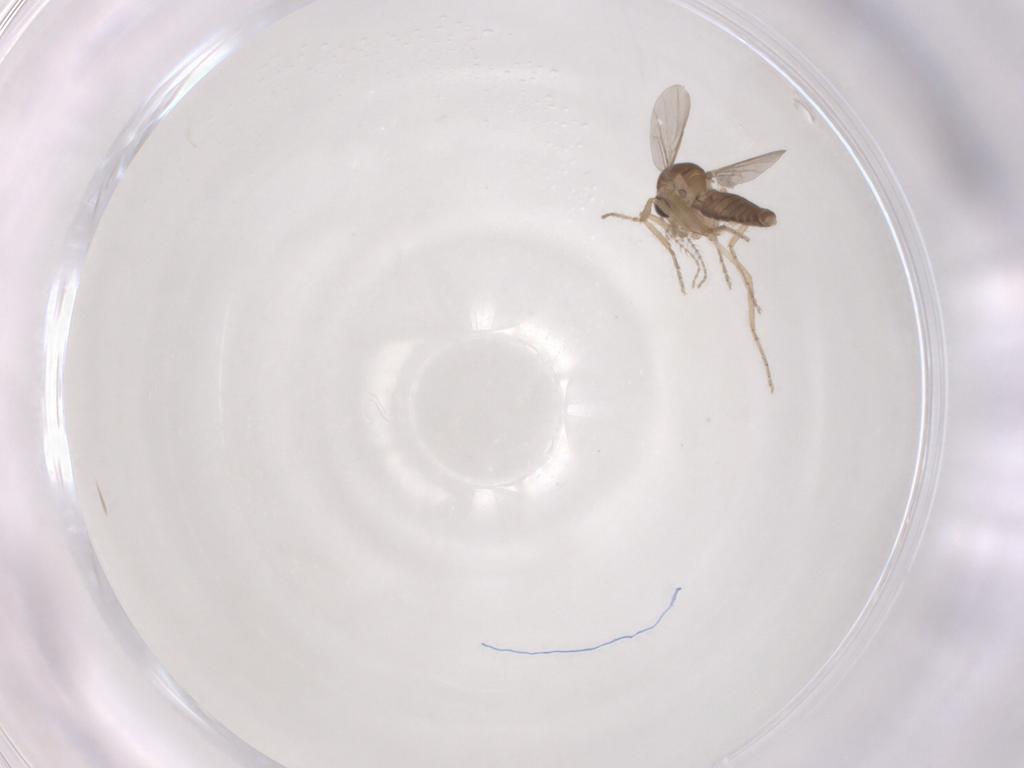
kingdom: Animalia
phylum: Arthropoda
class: Insecta
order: Diptera
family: Ceratopogonidae
